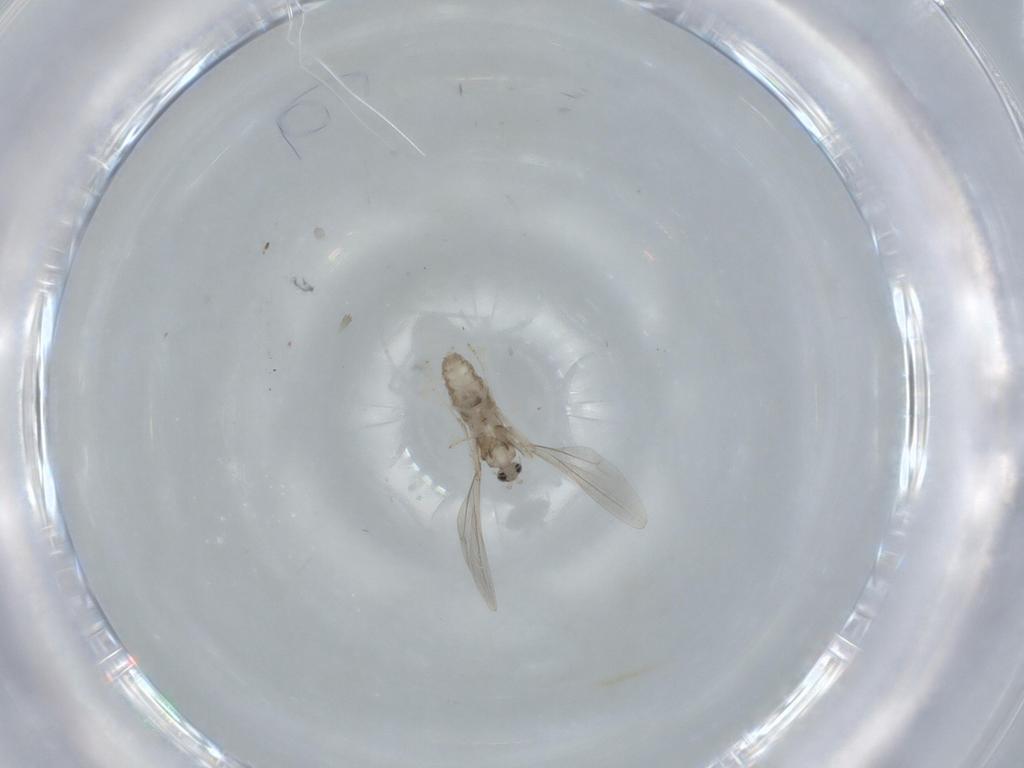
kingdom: Animalia
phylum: Arthropoda
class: Insecta
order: Diptera
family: Cecidomyiidae
